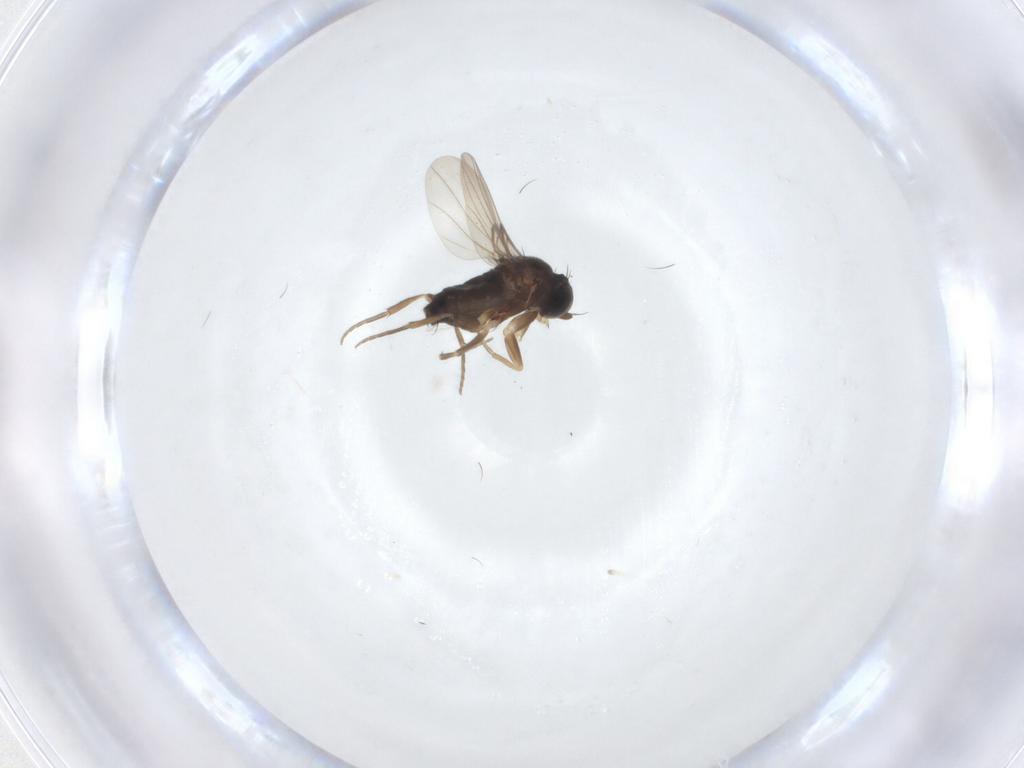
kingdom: Animalia
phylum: Arthropoda
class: Insecta
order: Diptera
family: Phoridae
